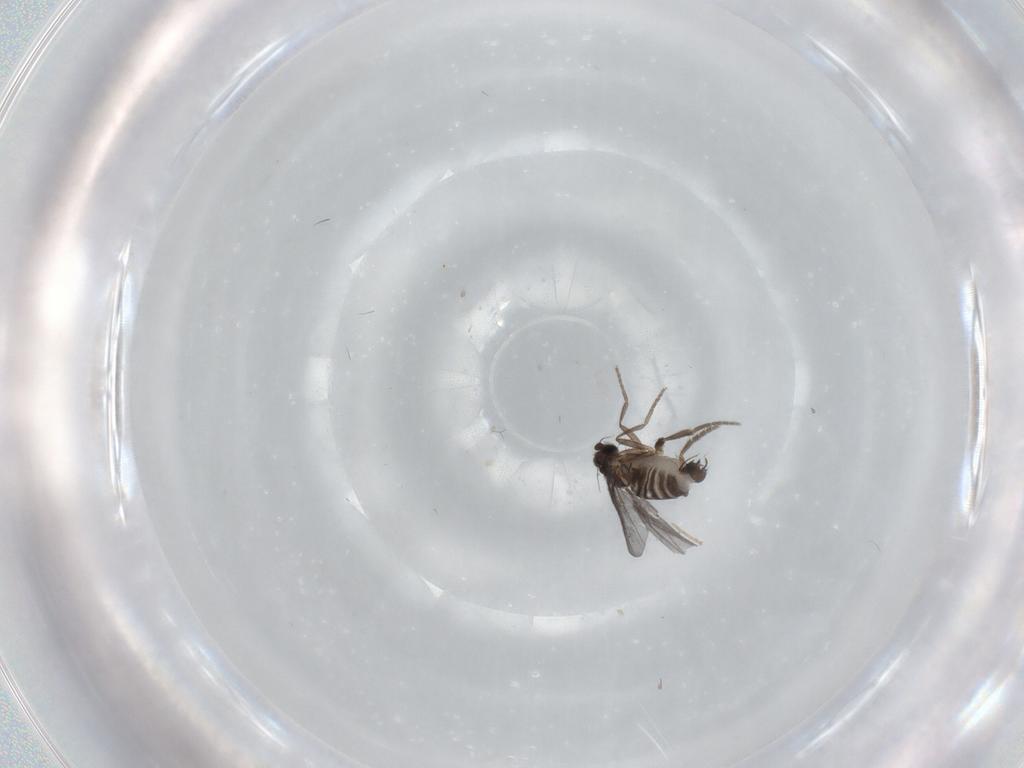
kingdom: Animalia
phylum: Arthropoda
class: Insecta
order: Diptera
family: Phoridae
